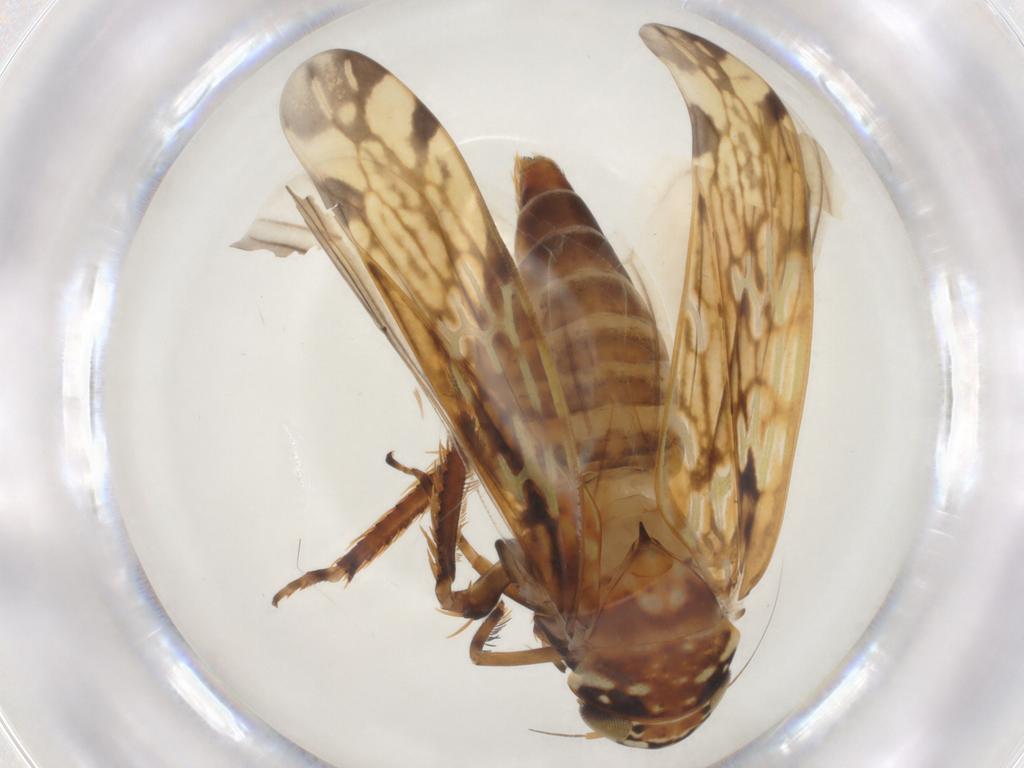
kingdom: Animalia
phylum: Arthropoda
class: Insecta
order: Hemiptera
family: Cicadellidae
